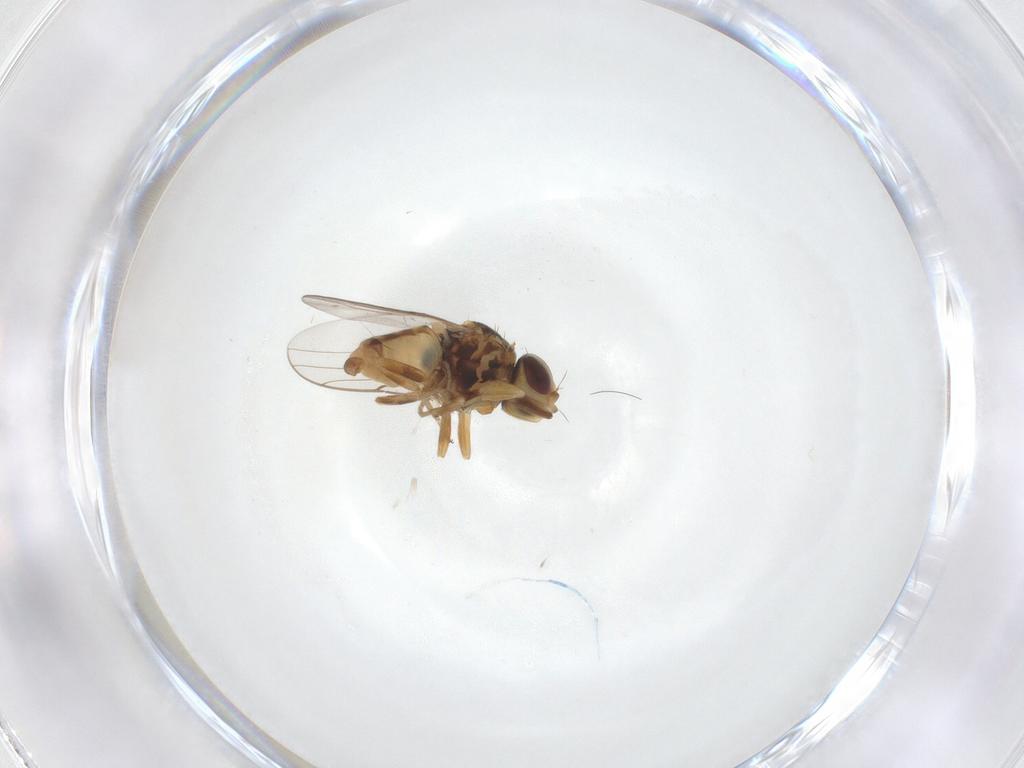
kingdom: Animalia
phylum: Arthropoda
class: Insecta
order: Diptera
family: Chloropidae
